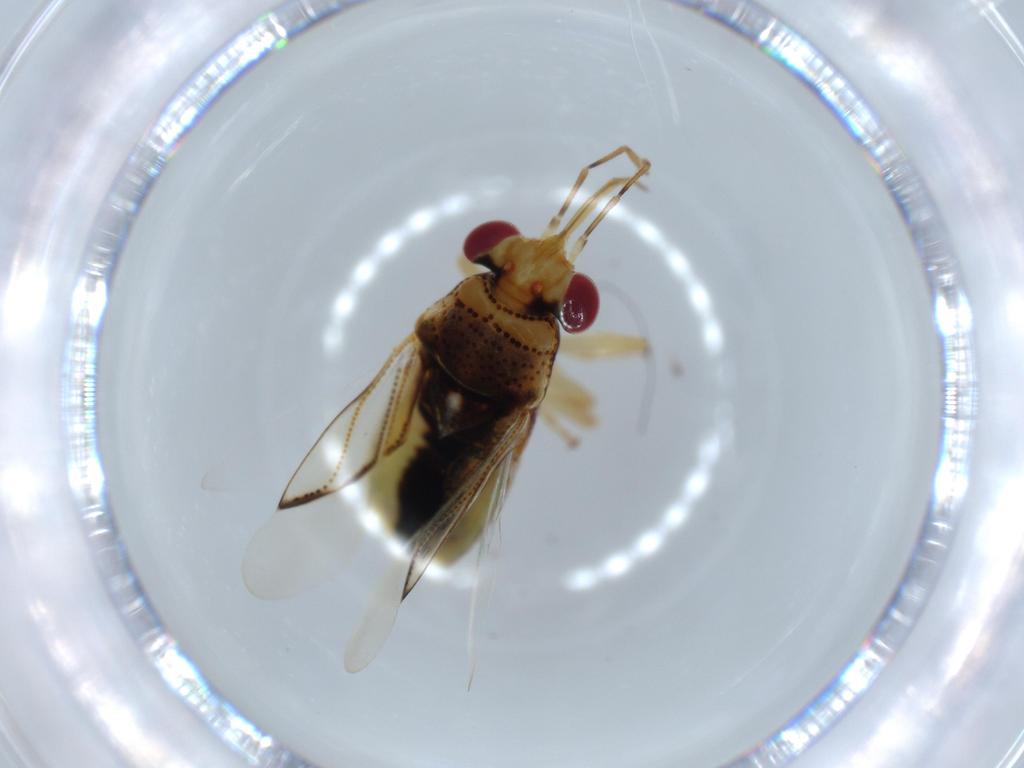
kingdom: Animalia
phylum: Arthropoda
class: Insecta
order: Hemiptera
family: Geocoridae
